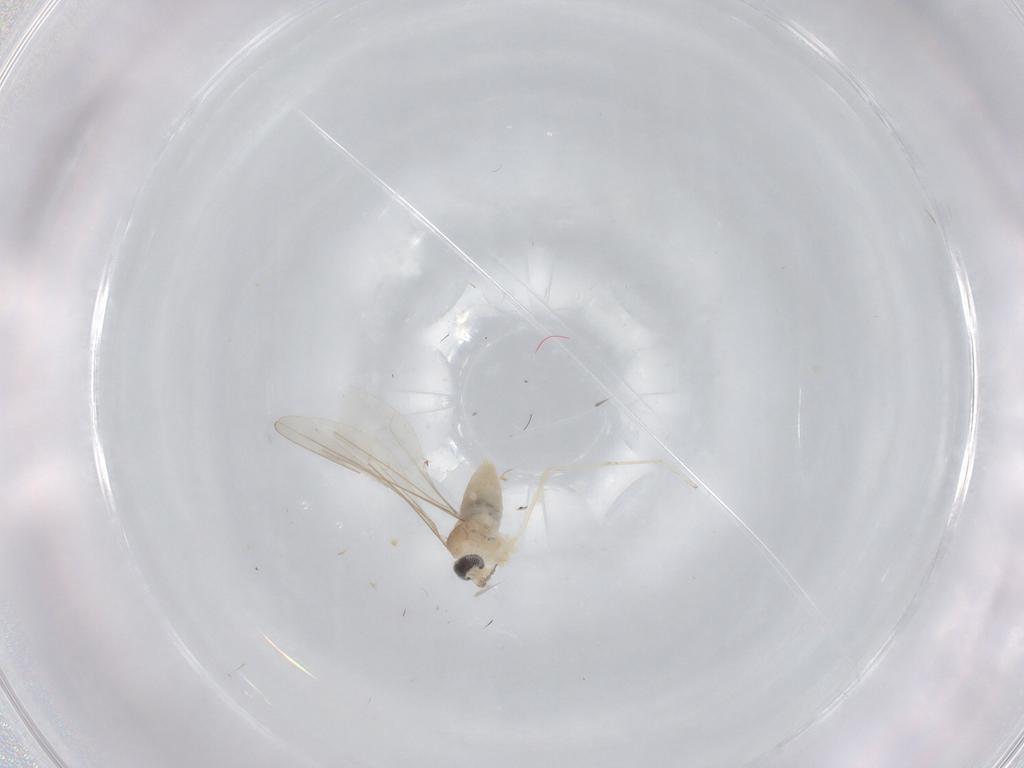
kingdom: Animalia
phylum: Arthropoda
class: Insecta
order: Diptera
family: Cecidomyiidae
